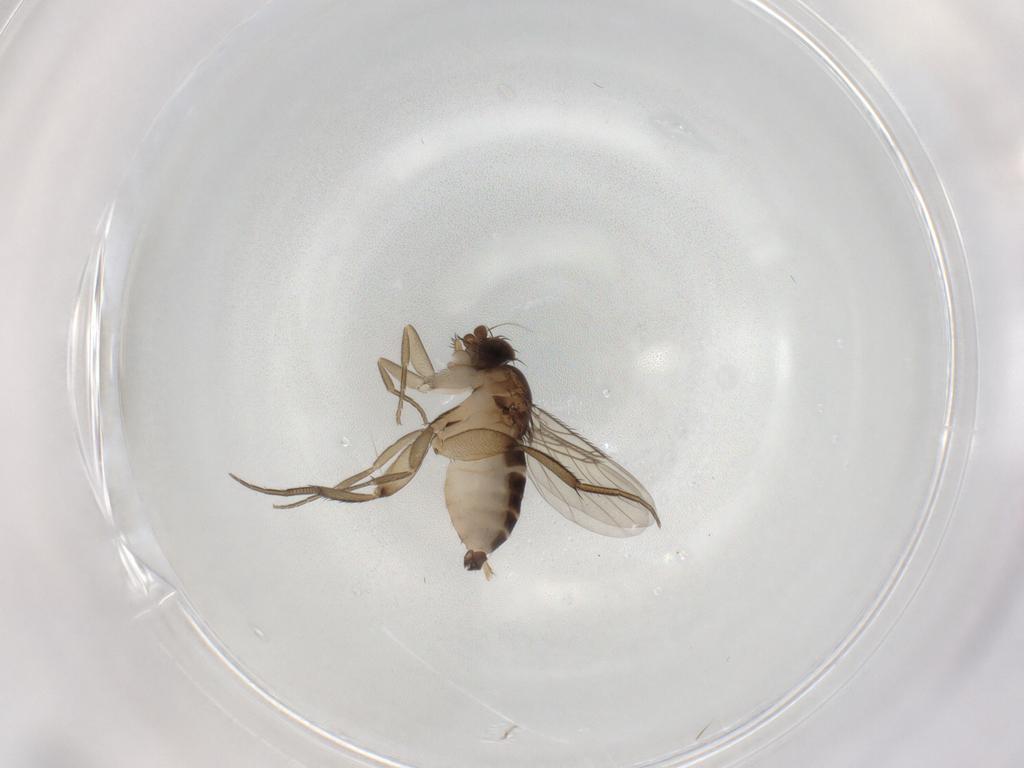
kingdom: Animalia
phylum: Arthropoda
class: Insecta
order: Diptera
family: Phoridae
